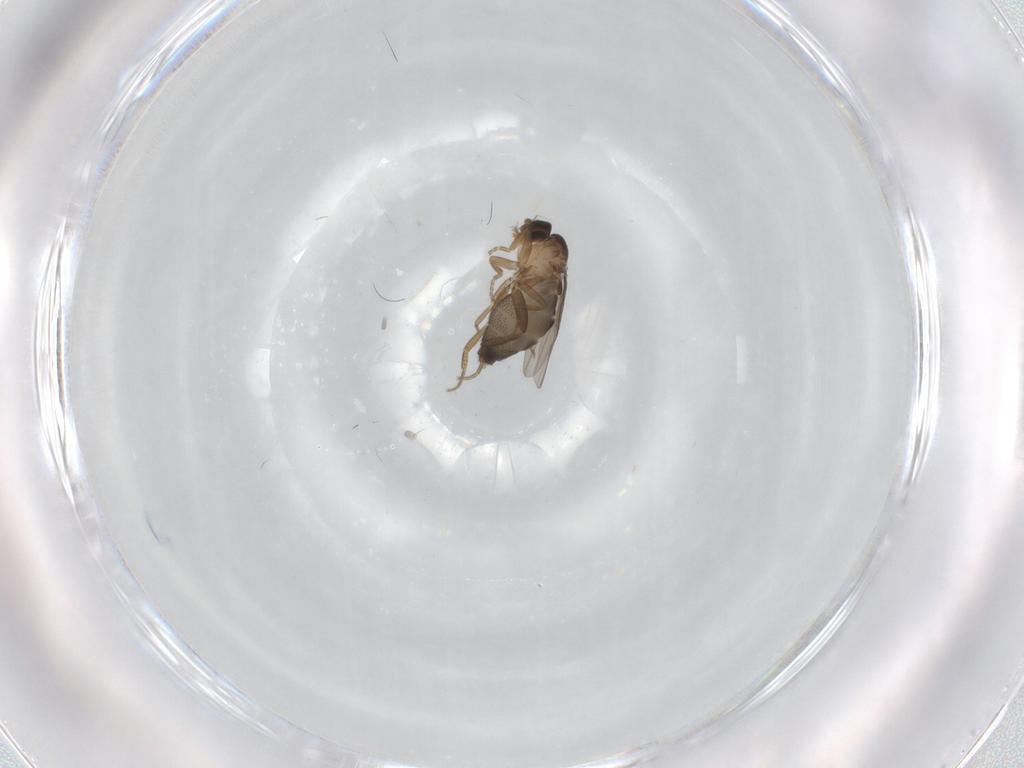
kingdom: Animalia
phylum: Arthropoda
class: Insecta
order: Diptera
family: Phoridae
